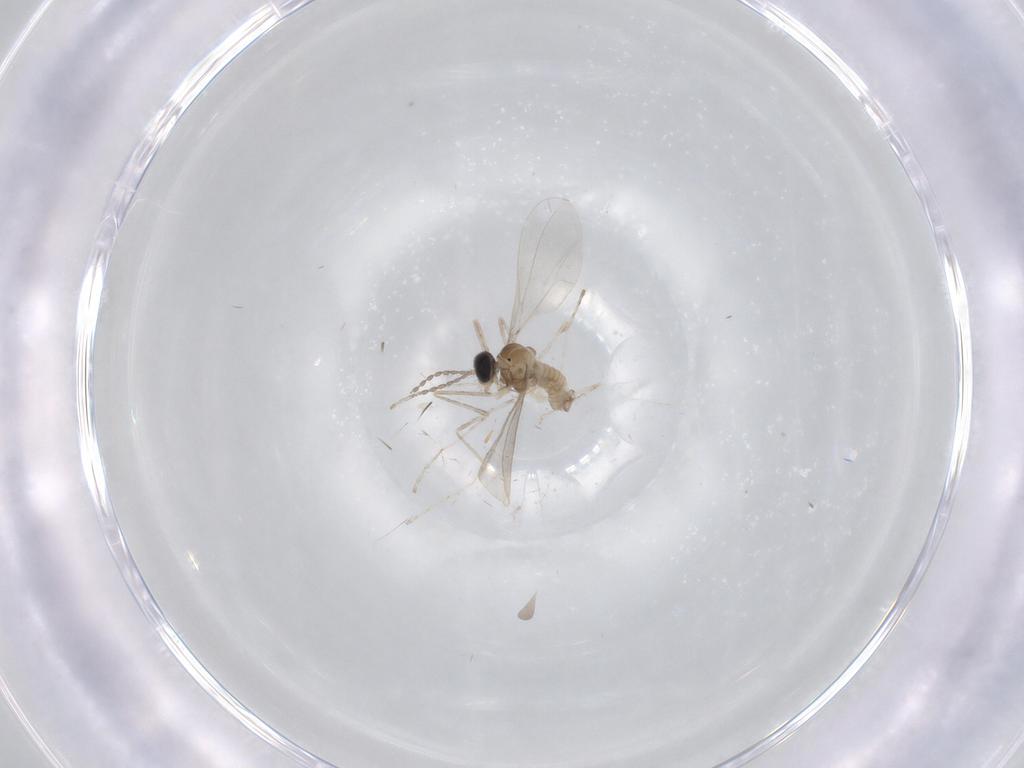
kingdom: Animalia
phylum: Arthropoda
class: Insecta
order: Diptera
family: Cecidomyiidae
